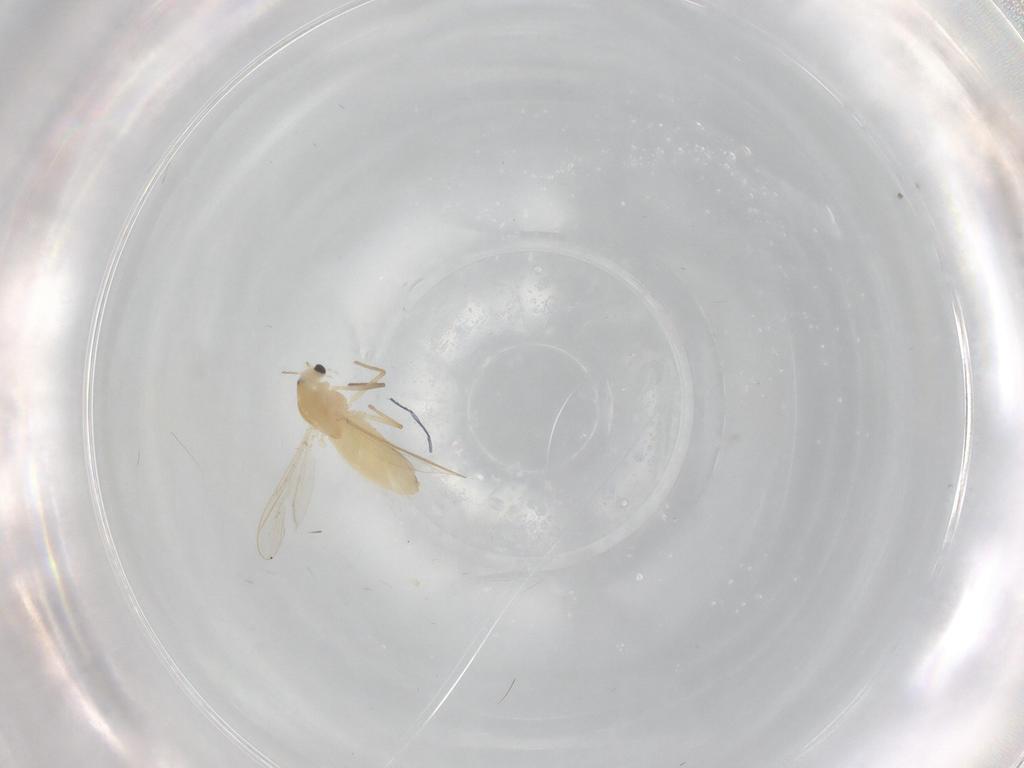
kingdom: Animalia
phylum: Arthropoda
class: Insecta
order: Diptera
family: Chironomidae
